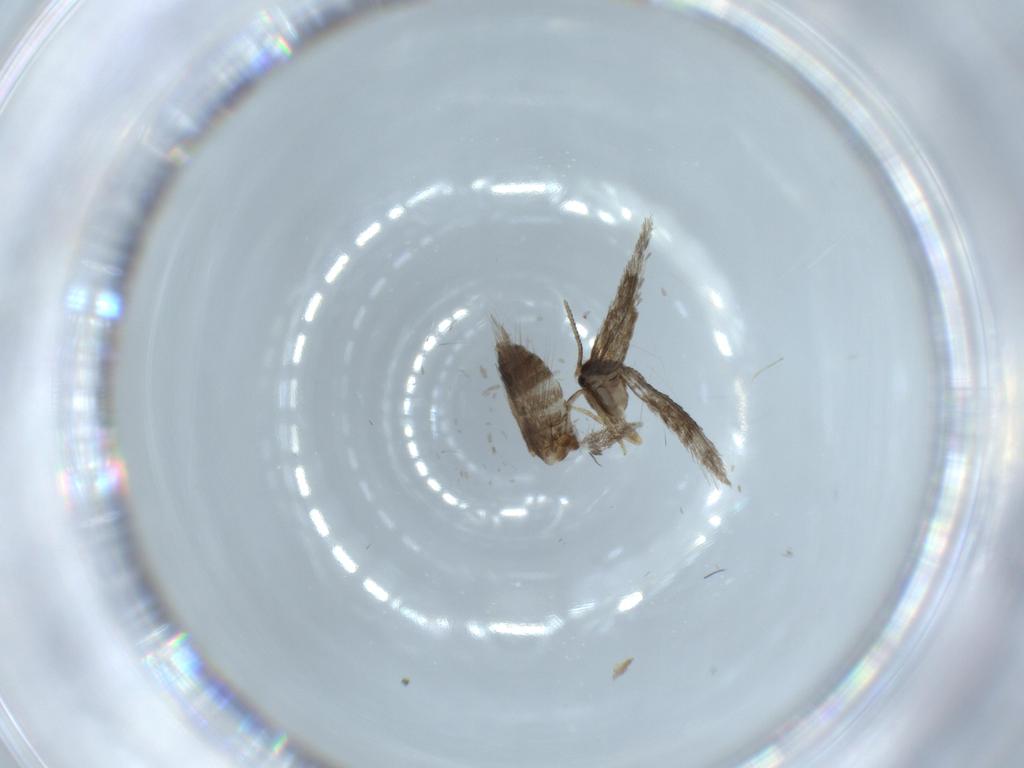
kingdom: Animalia
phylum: Arthropoda
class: Insecta
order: Lepidoptera
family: Nepticulidae
